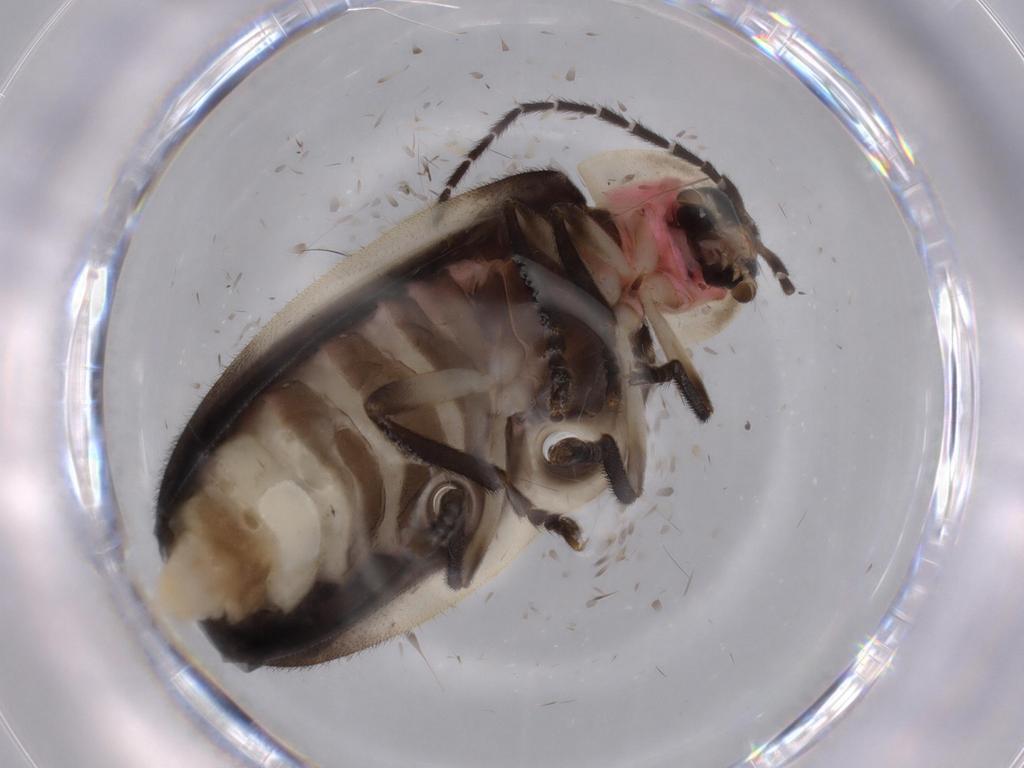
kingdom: Animalia
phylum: Arthropoda
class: Insecta
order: Coleoptera
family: Lampyridae
